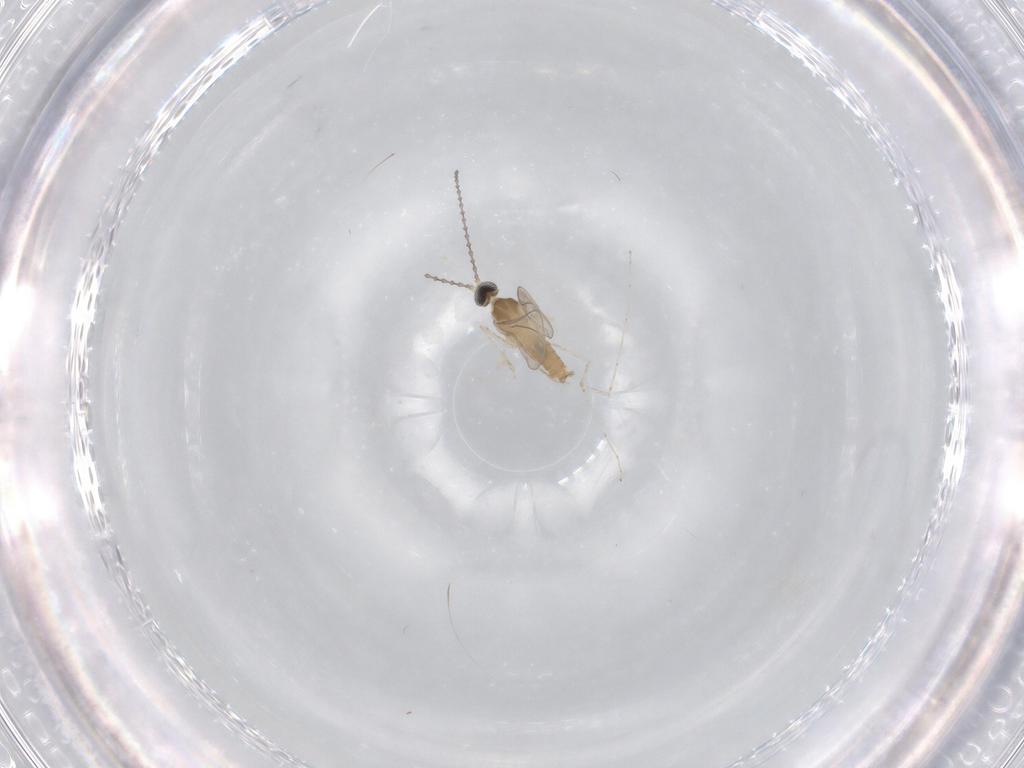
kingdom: Animalia
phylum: Arthropoda
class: Insecta
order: Diptera
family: Cecidomyiidae
